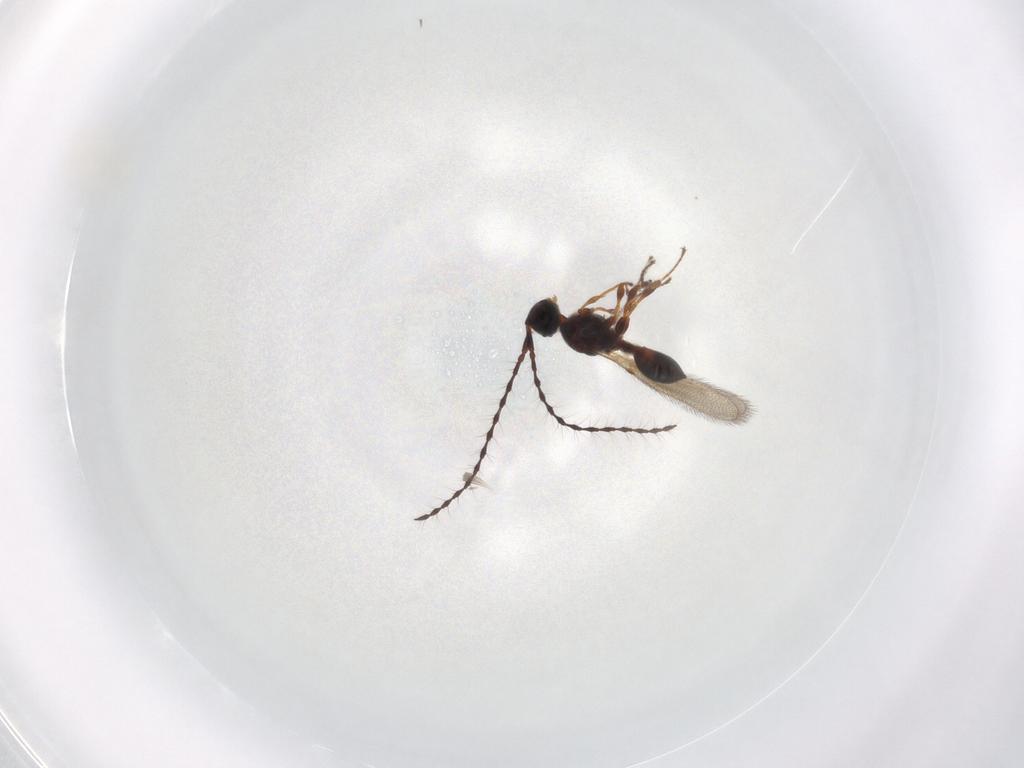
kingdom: Animalia
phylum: Arthropoda
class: Insecta
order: Hymenoptera
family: Diapriidae
